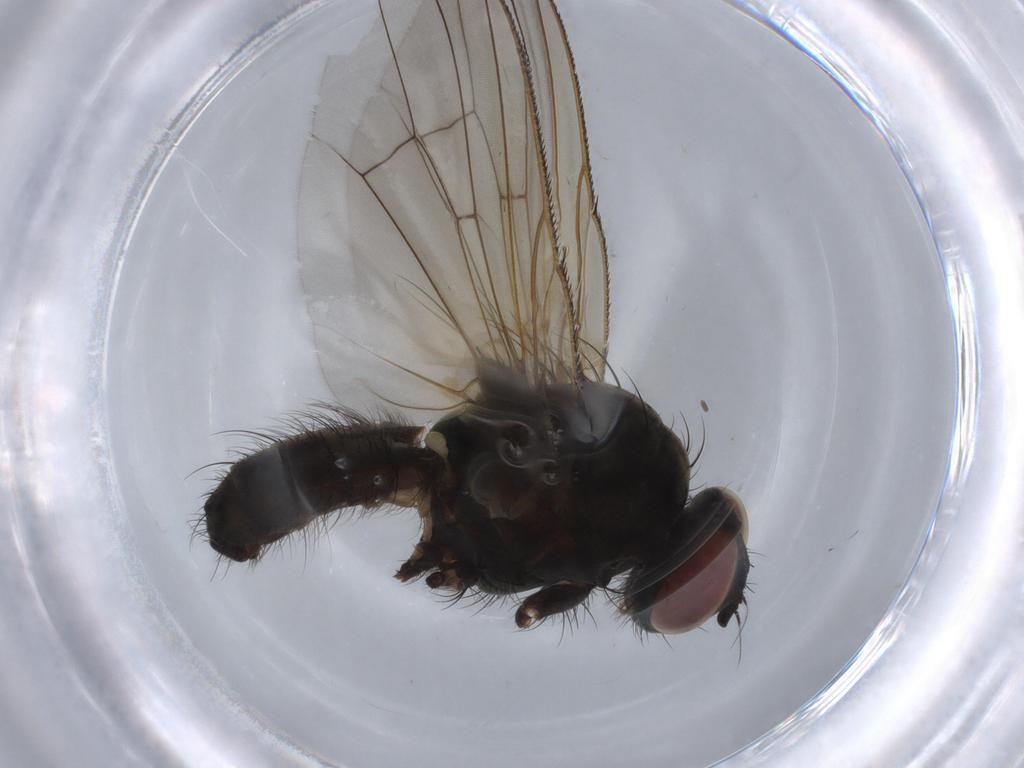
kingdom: Animalia
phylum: Arthropoda
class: Insecta
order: Diptera
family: Anthomyiidae
